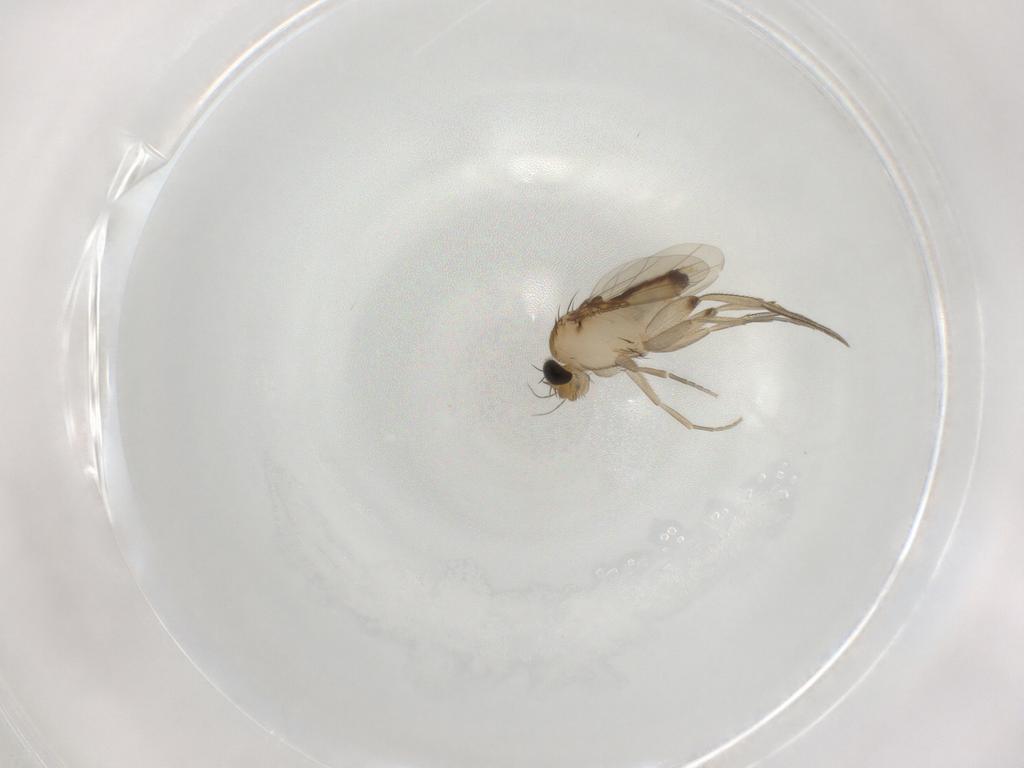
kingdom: Animalia
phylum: Arthropoda
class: Insecta
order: Diptera
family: Phoridae
